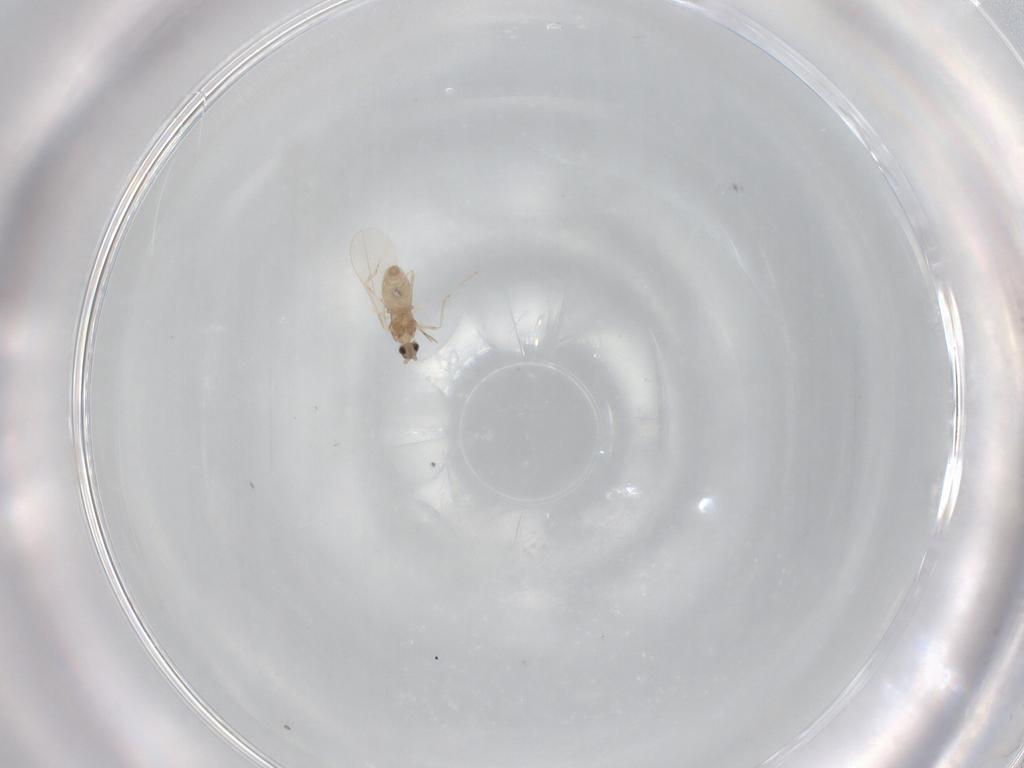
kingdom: Animalia
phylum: Arthropoda
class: Insecta
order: Diptera
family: Cecidomyiidae
